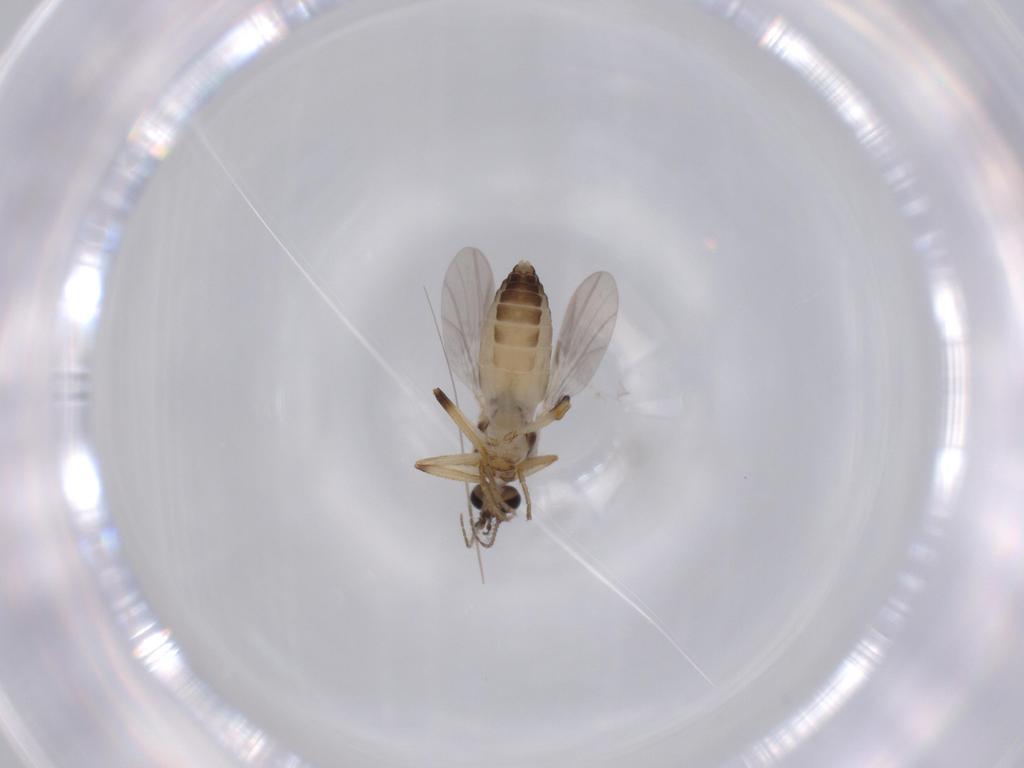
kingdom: Animalia
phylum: Arthropoda
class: Insecta
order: Diptera
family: Ceratopogonidae
